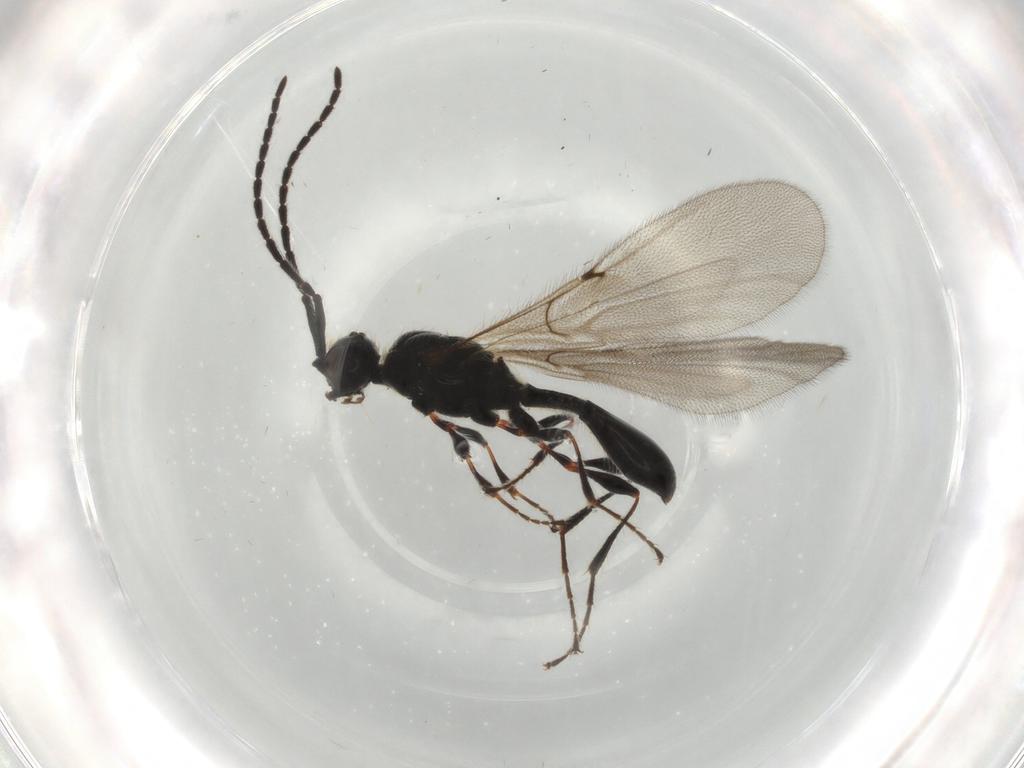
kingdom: Animalia
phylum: Arthropoda
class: Insecta
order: Hymenoptera
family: Diapriidae
